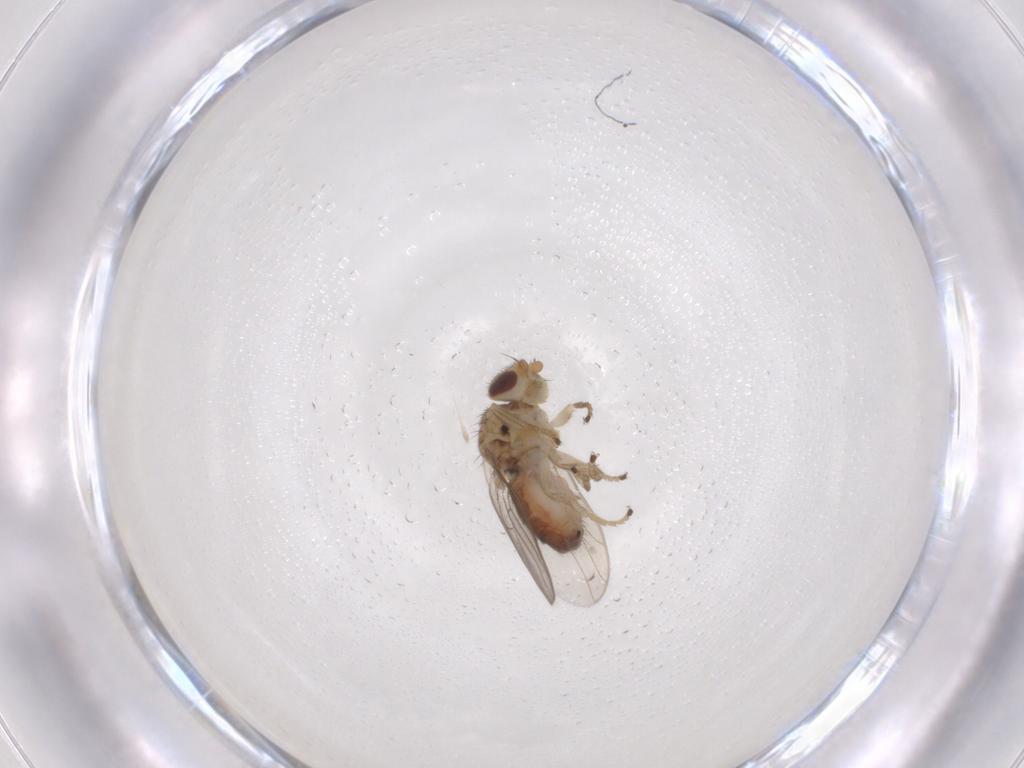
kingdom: Animalia
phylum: Arthropoda
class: Insecta
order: Diptera
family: Chloropidae
